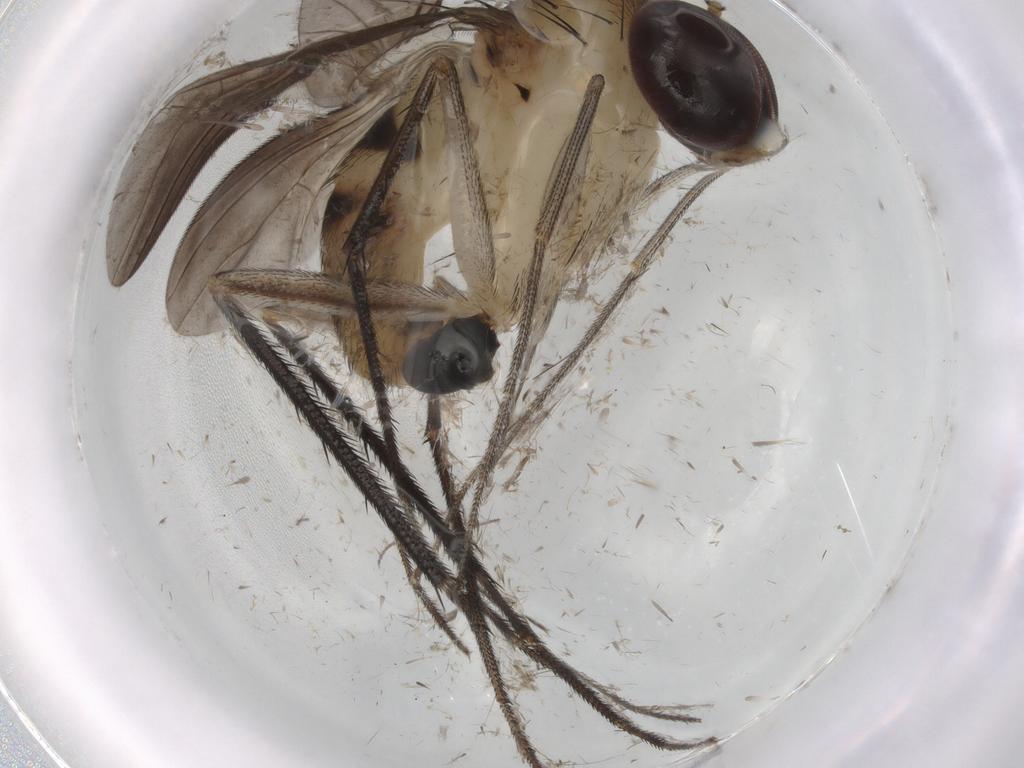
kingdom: Animalia
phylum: Arthropoda
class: Insecta
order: Diptera
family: Dolichopodidae
